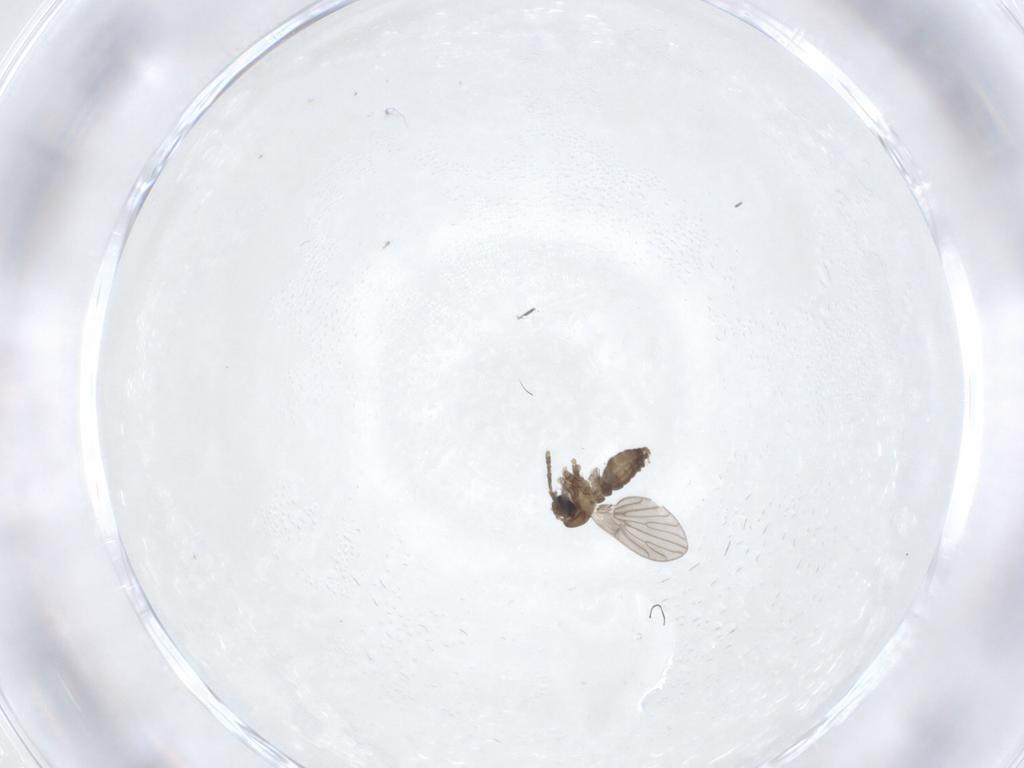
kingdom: Animalia
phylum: Arthropoda
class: Insecta
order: Diptera
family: Psychodidae
